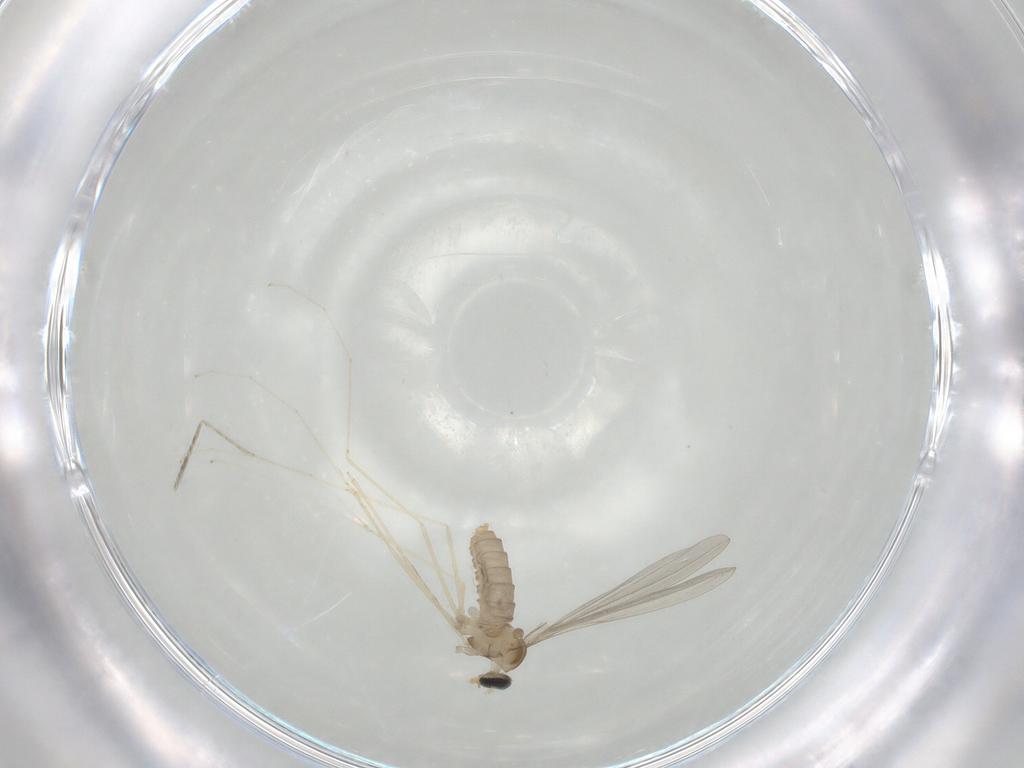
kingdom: Animalia
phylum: Arthropoda
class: Insecta
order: Diptera
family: Cecidomyiidae
